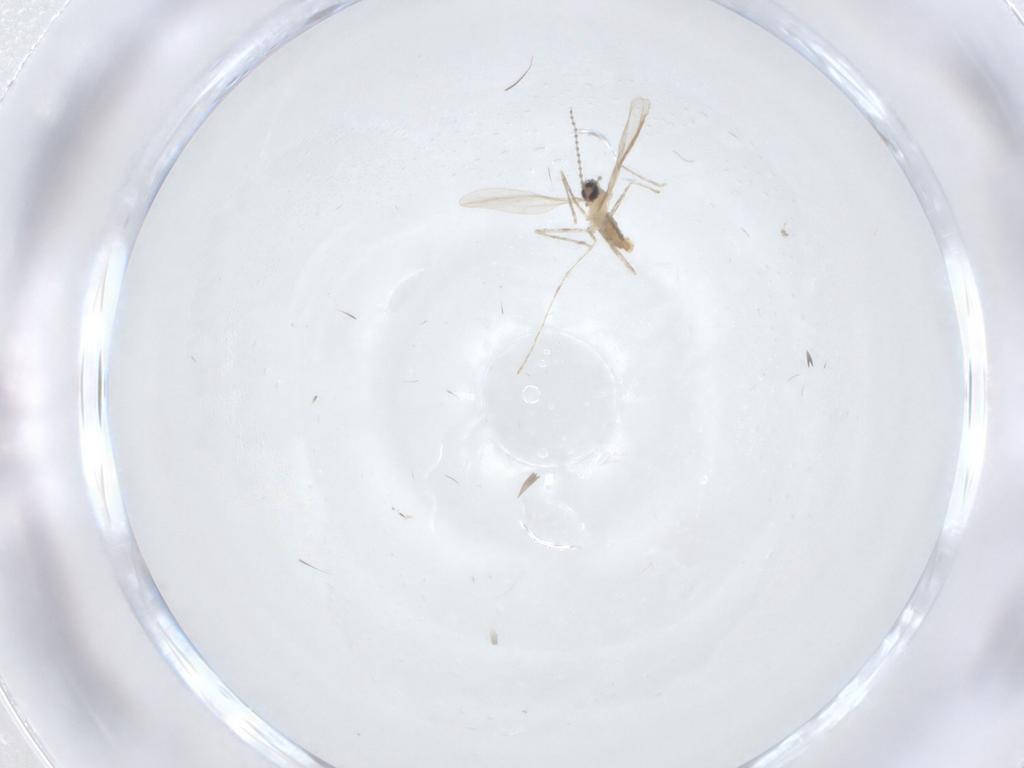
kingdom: Animalia
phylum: Arthropoda
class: Insecta
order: Diptera
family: Cecidomyiidae
